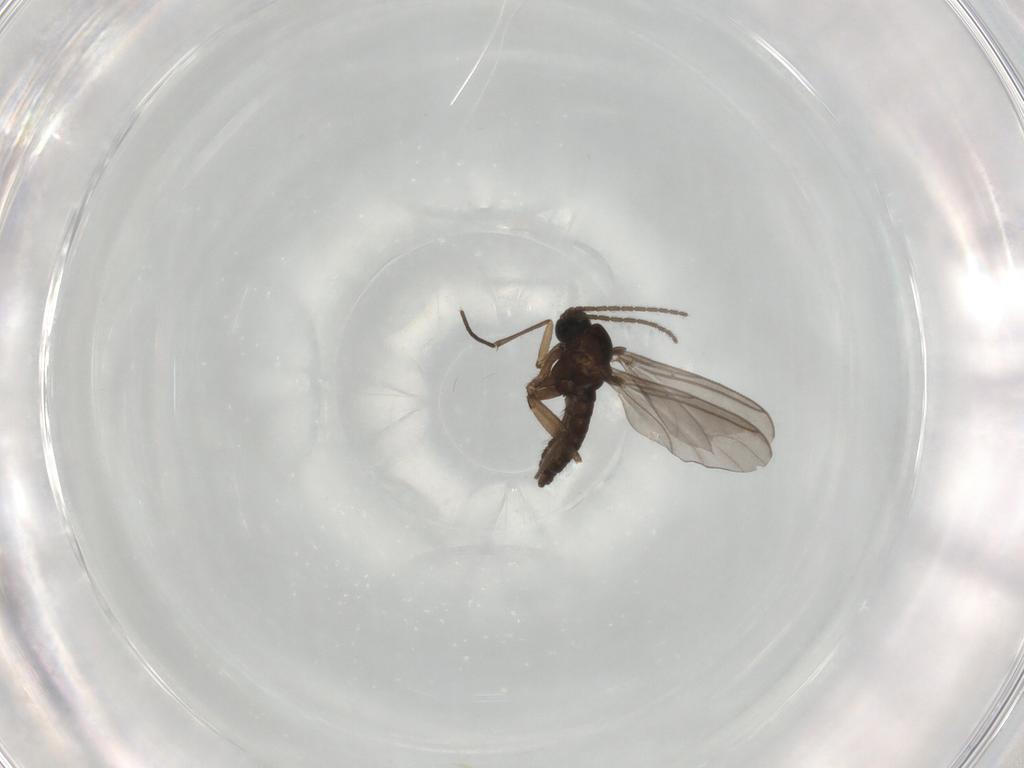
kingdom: Animalia
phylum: Arthropoda
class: Insecta
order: Diptera
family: Sciaridae
